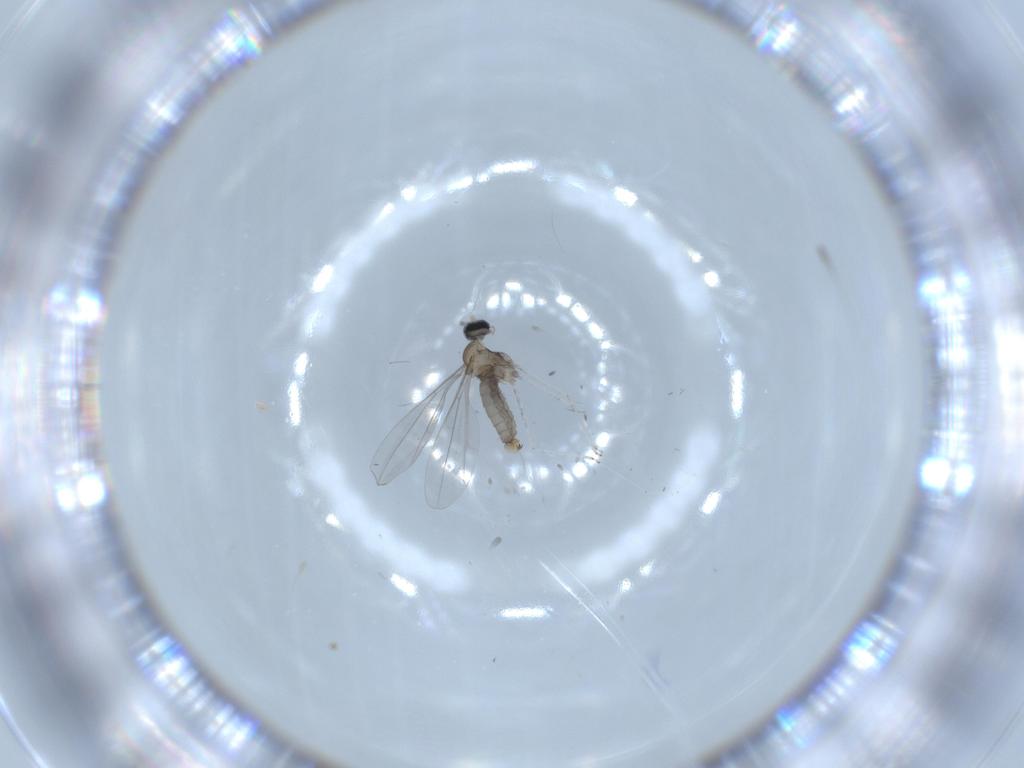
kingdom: Animalia
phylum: Arthropoda
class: Insecta
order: Diptera
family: Cecidomyiidae
